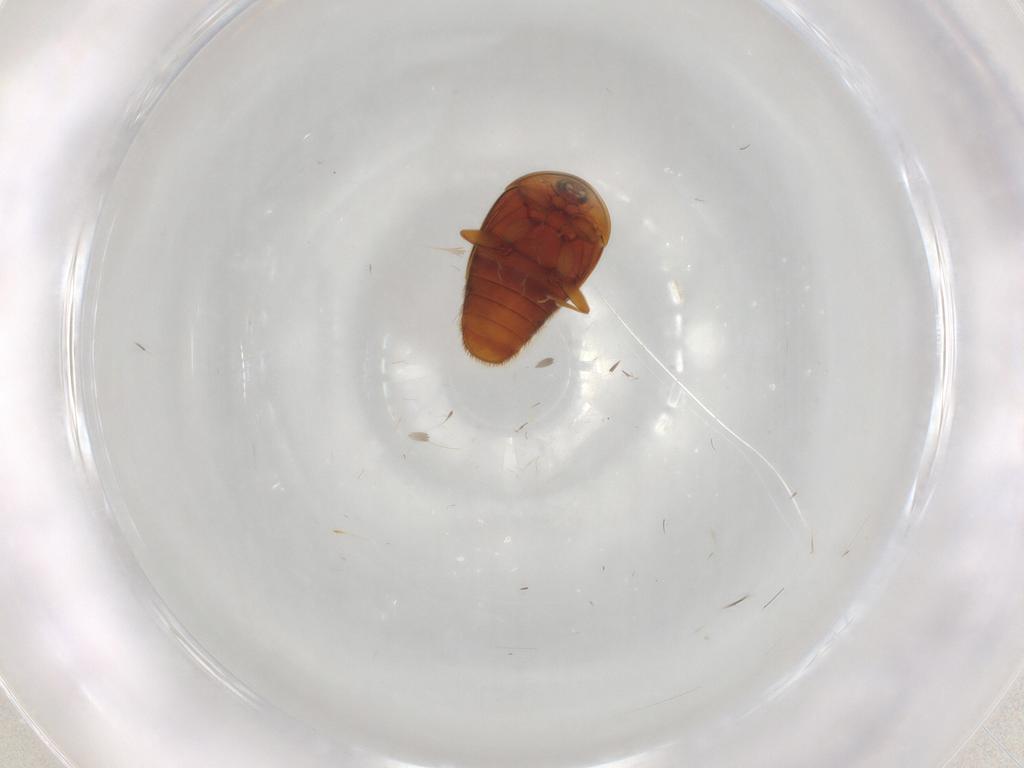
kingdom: Animalia
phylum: Arthropoda
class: Insecta
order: Coleoptera
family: Corylophidae
